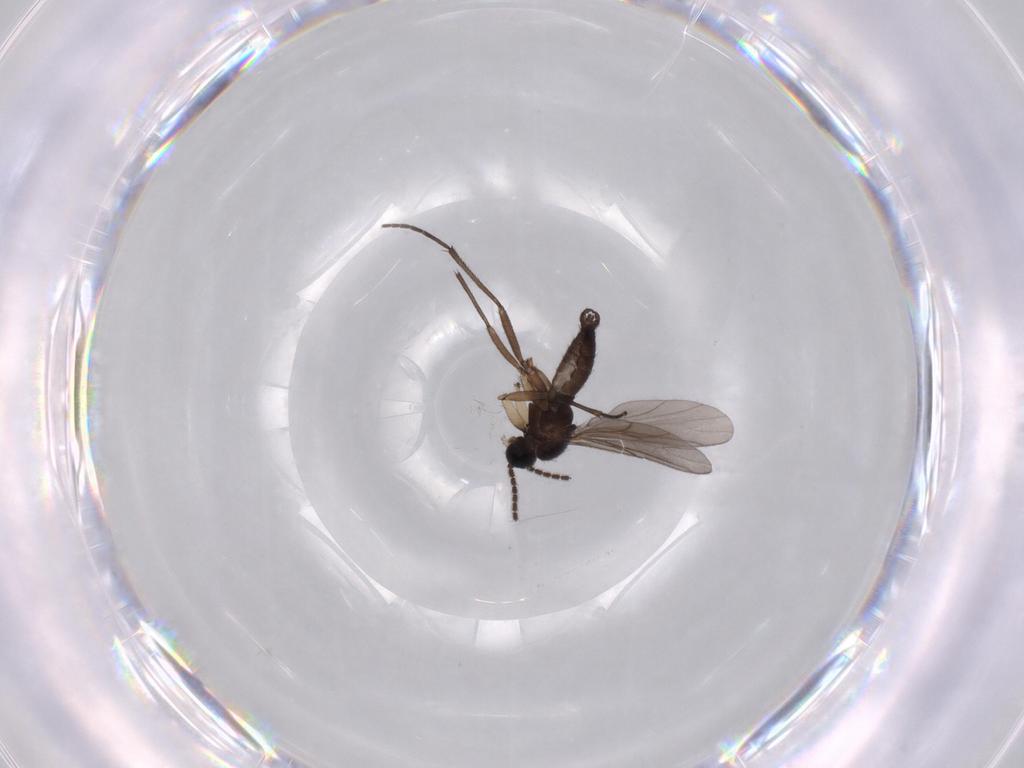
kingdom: Animalia
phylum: Arthropoda
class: Insecta
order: Diptera
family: Sciaridae
